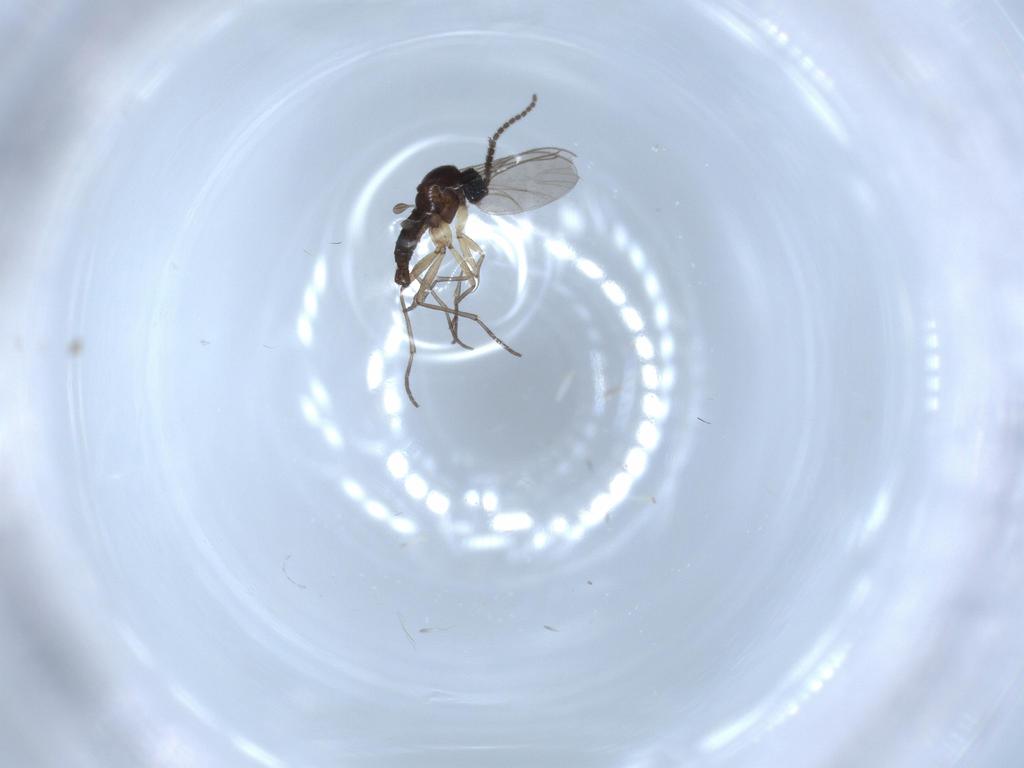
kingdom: Animalia
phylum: Arthropoda
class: Insecta
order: Diptera
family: Sciaridae
